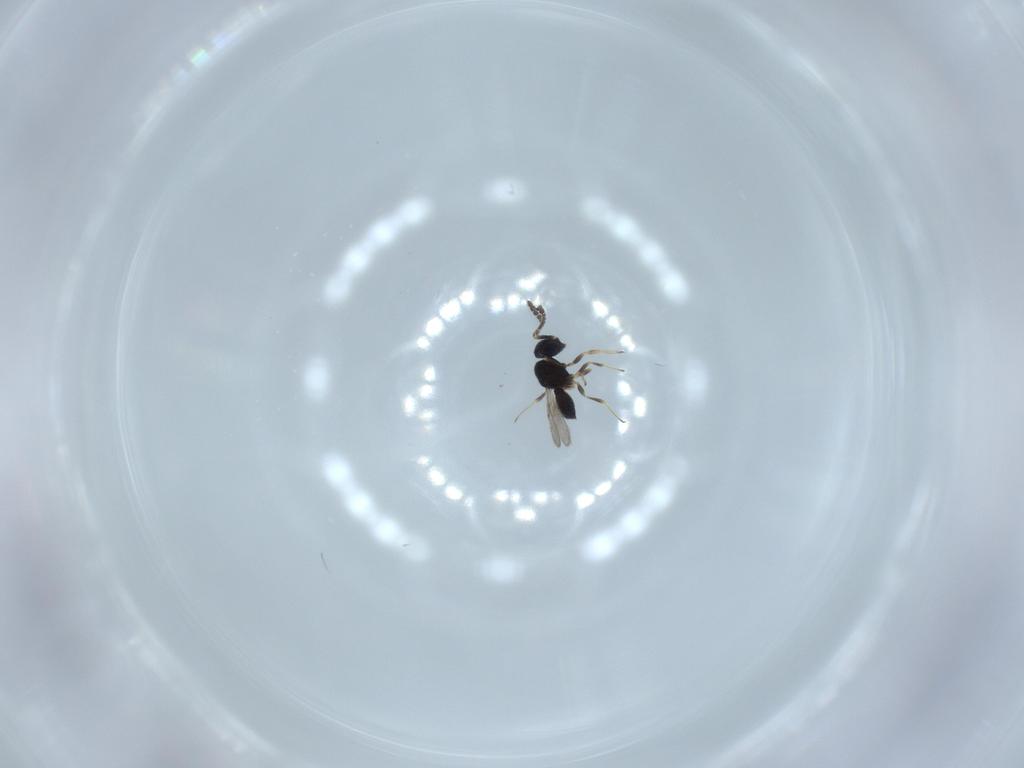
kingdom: Animalia
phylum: Arthropoda
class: Insecta
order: Hymenoptera
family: Scelionidae
